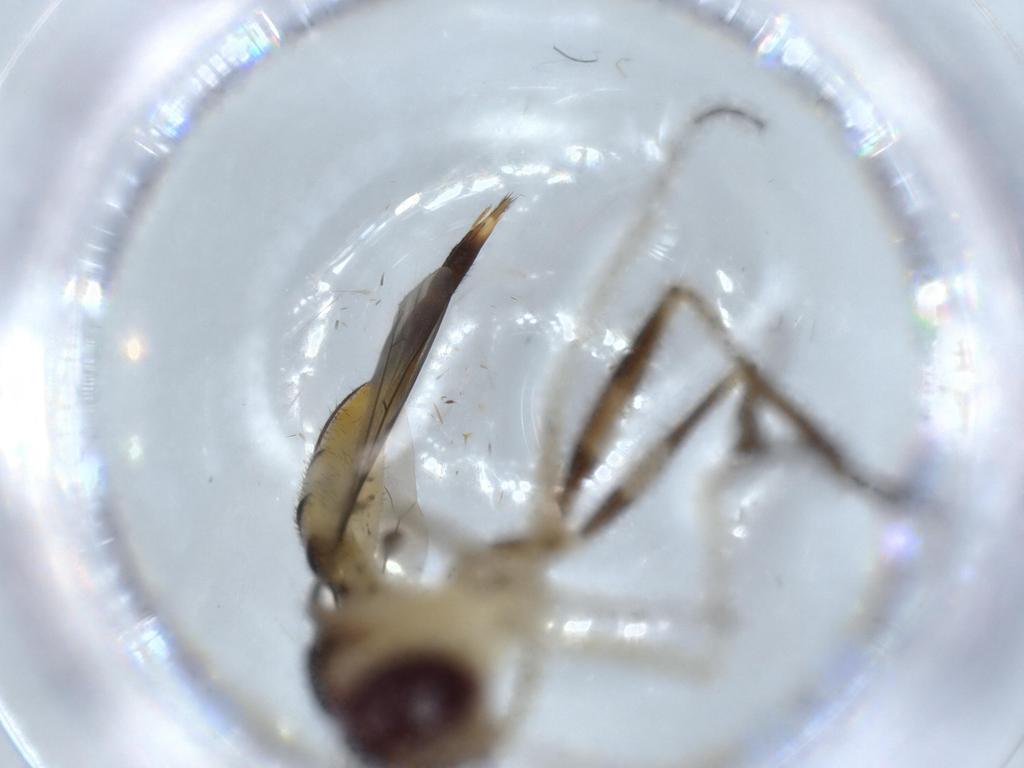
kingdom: Animalia
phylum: Arthropoda
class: Insecta
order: Diptera
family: Conopidae
